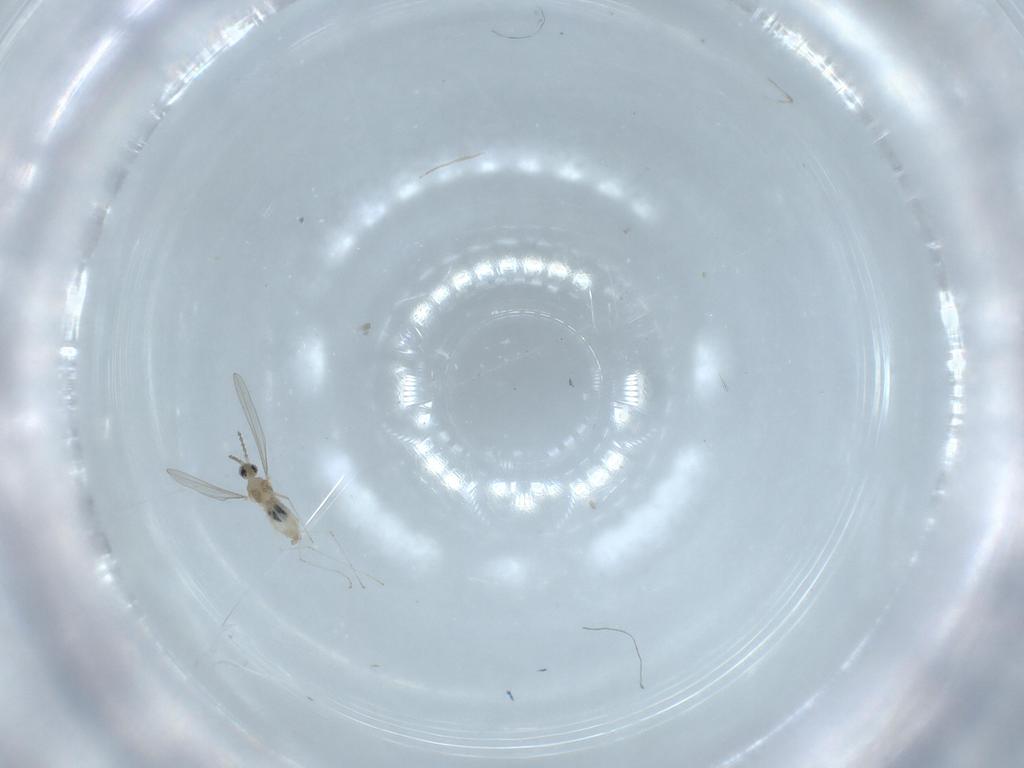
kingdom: Animalia
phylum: Arthropoda
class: Insecta
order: Diptera
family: Cecidomyiidae
